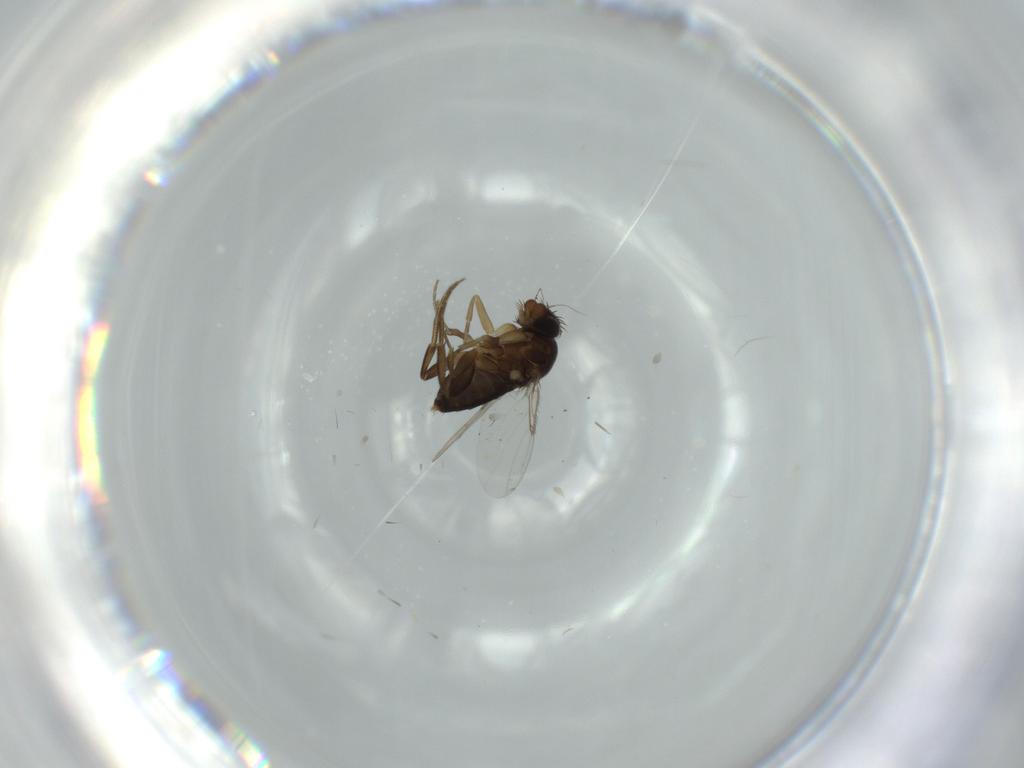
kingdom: Animalia
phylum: Arthropoda
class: Insecta
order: Diptera
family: Phoridae
